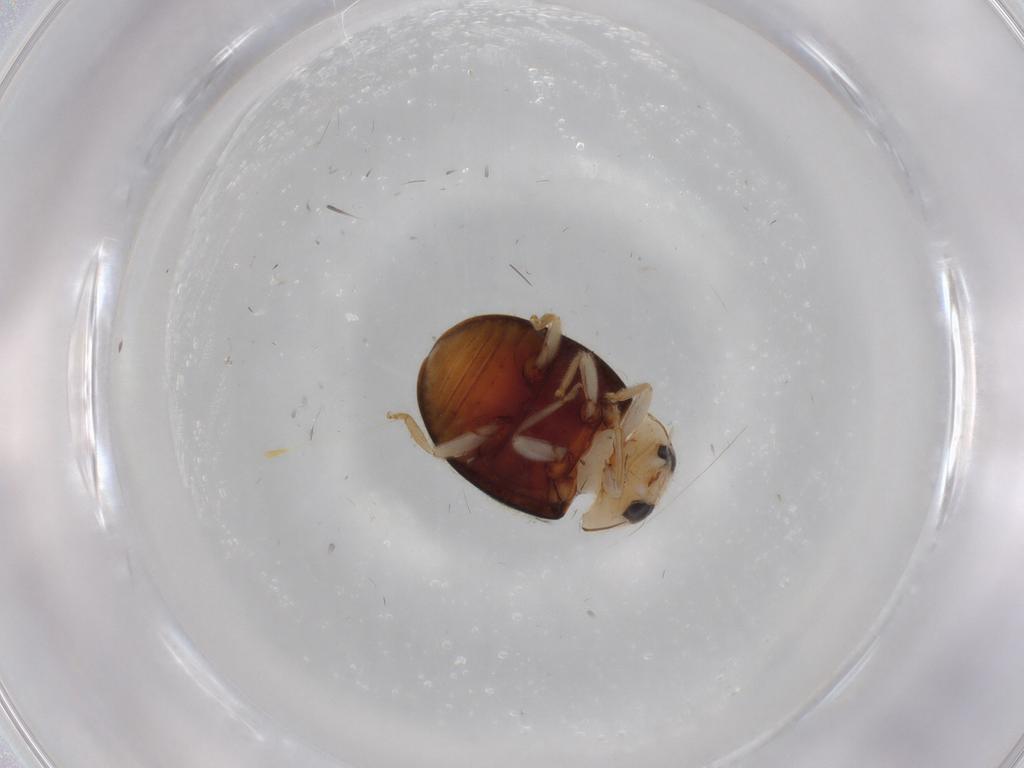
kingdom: Animalia
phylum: Arthropoda
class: Insecta
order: Coleoptera
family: Coccinellidae
